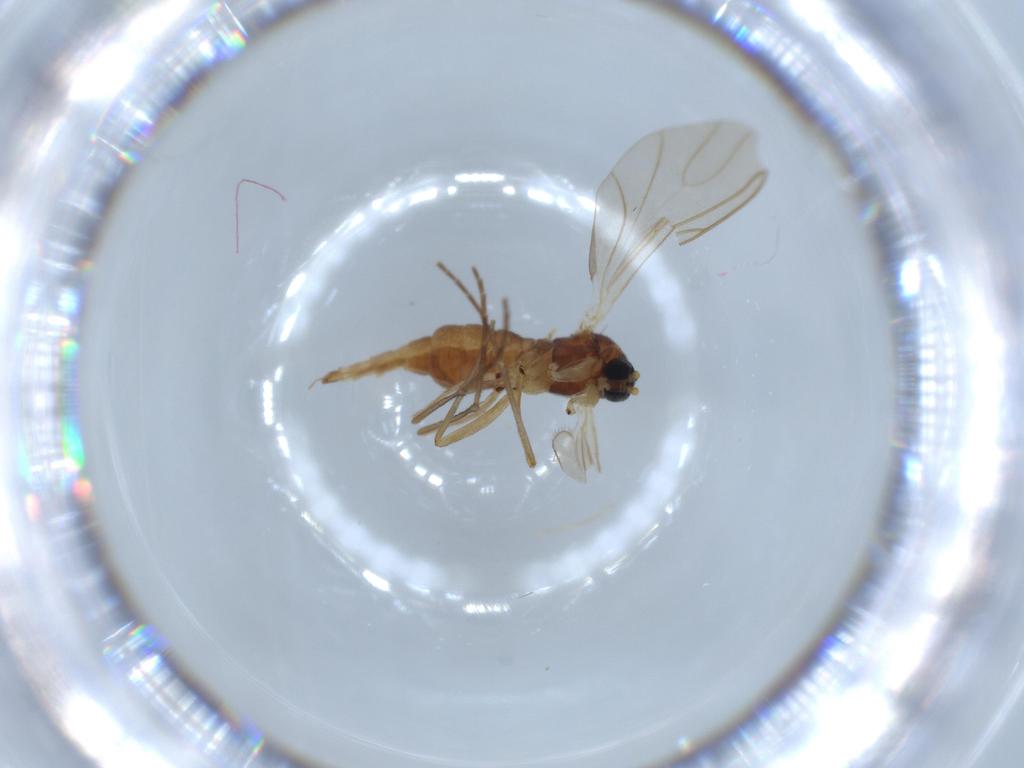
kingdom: Animalia
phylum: Arthropoda
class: Insecta
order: Diptera
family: Sciaridae
